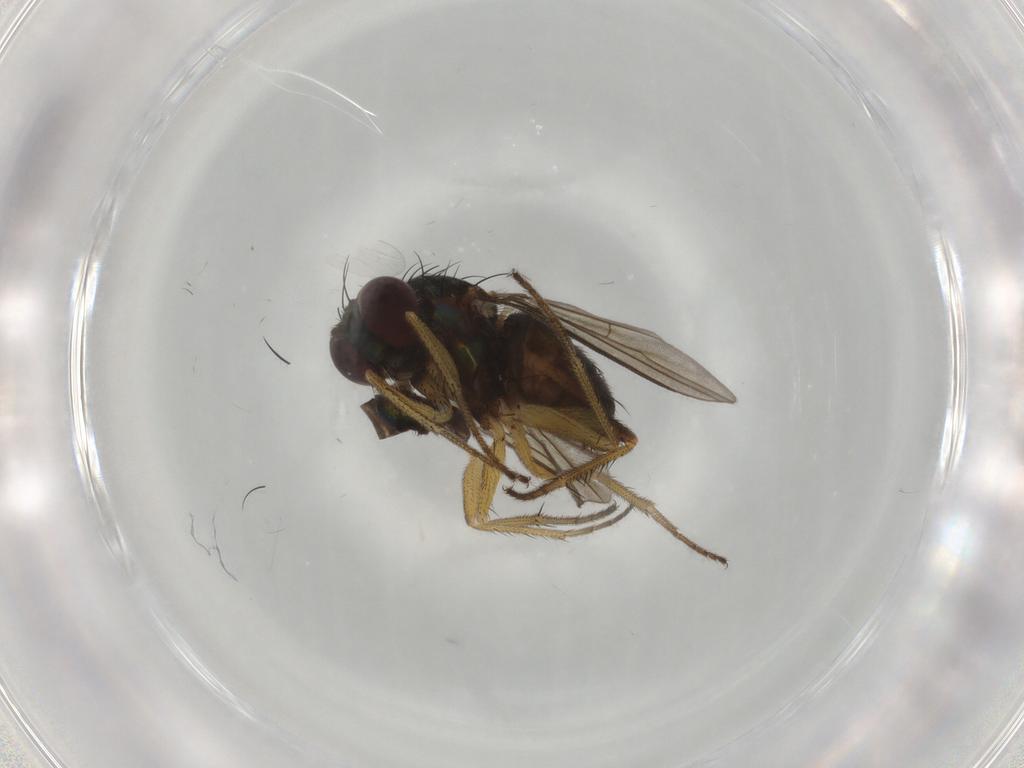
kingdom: Animalia
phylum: Arthropoda
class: Insecta
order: Diptera
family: Dolichopodidae
